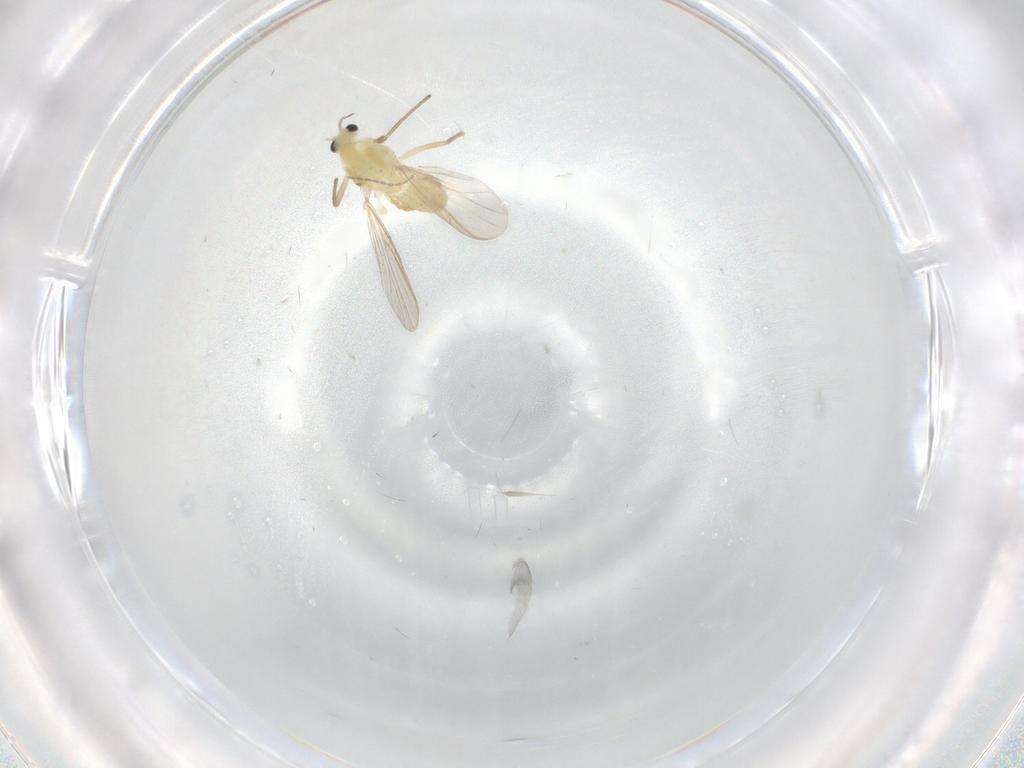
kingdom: Animalia
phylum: Arthropoda
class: Insecta
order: Diptera
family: Chironomidae
